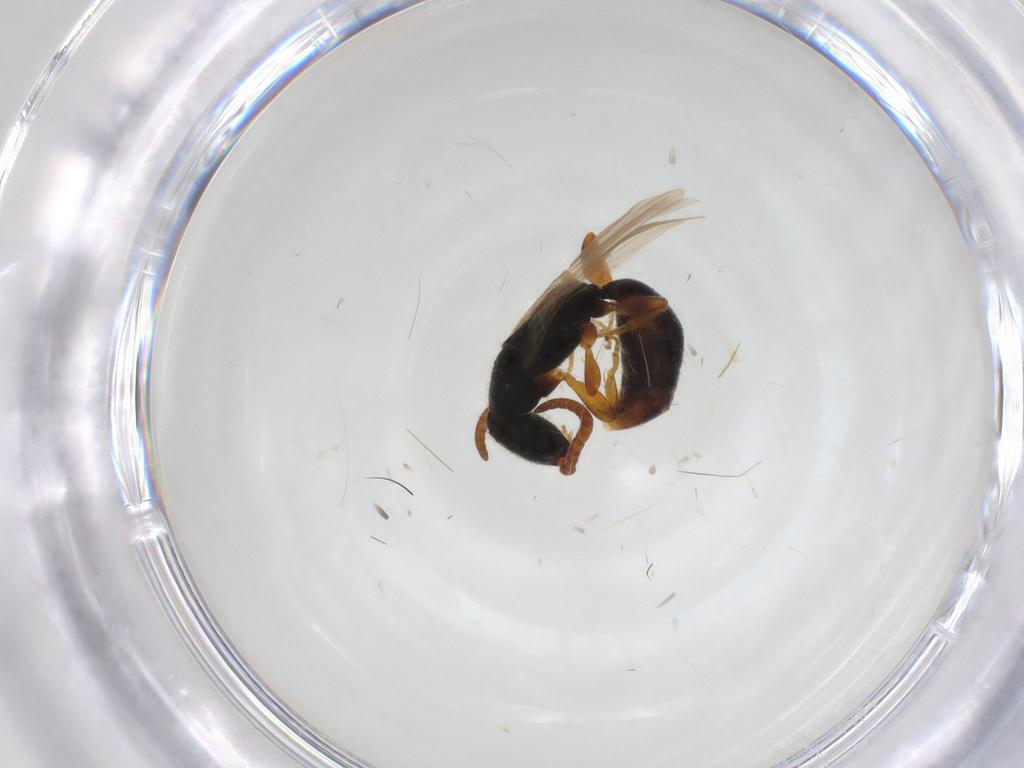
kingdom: Animalia
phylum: Arthropoda
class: Insecta
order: Hymenoptera
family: Bethylidae
